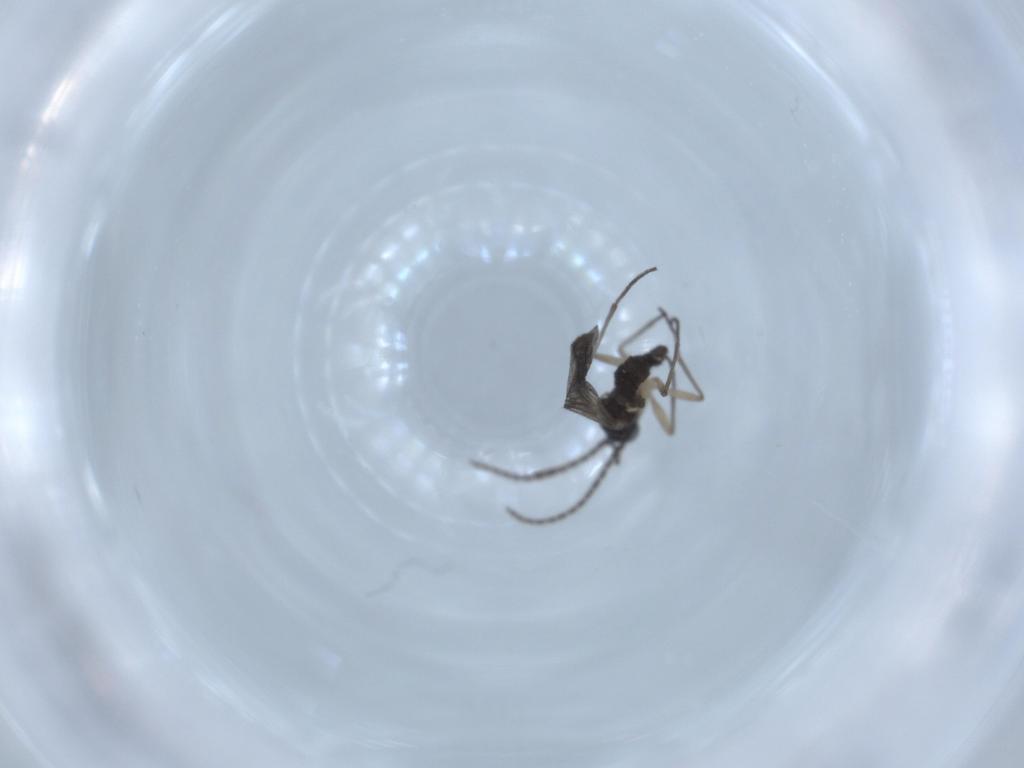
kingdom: Animalia
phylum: Arthropoda
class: Insecta
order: Diptera
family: Sciaridae
